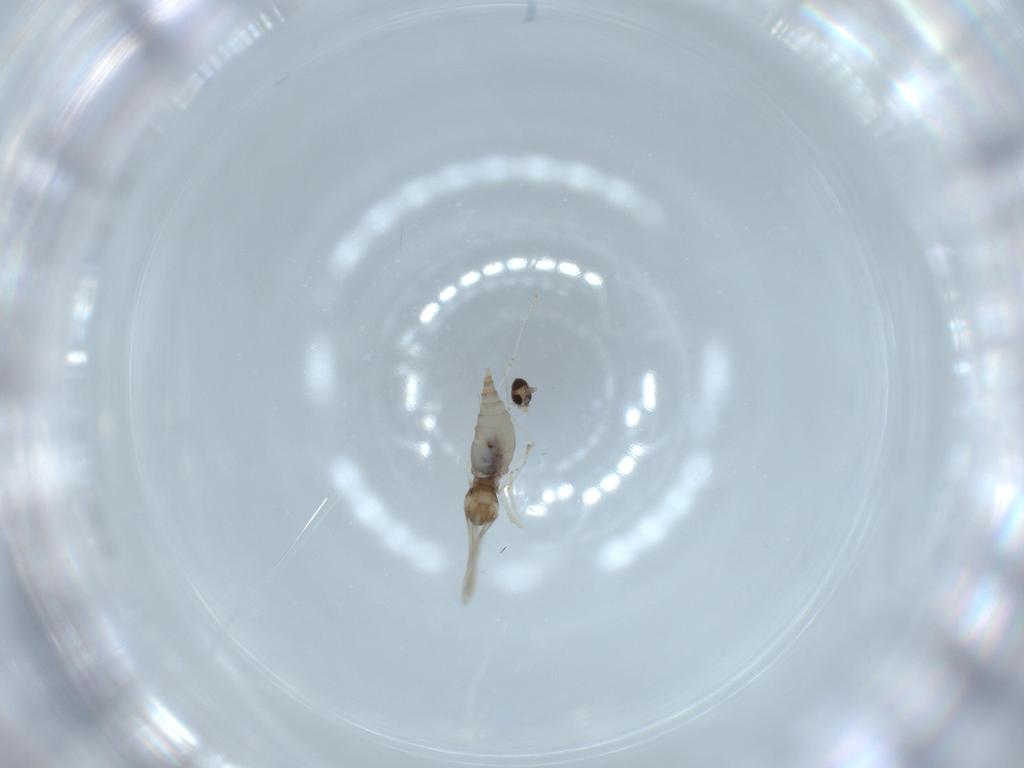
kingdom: Animalia
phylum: Arthropoda
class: Insecta
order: Diptera
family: Cecidomyiidae
